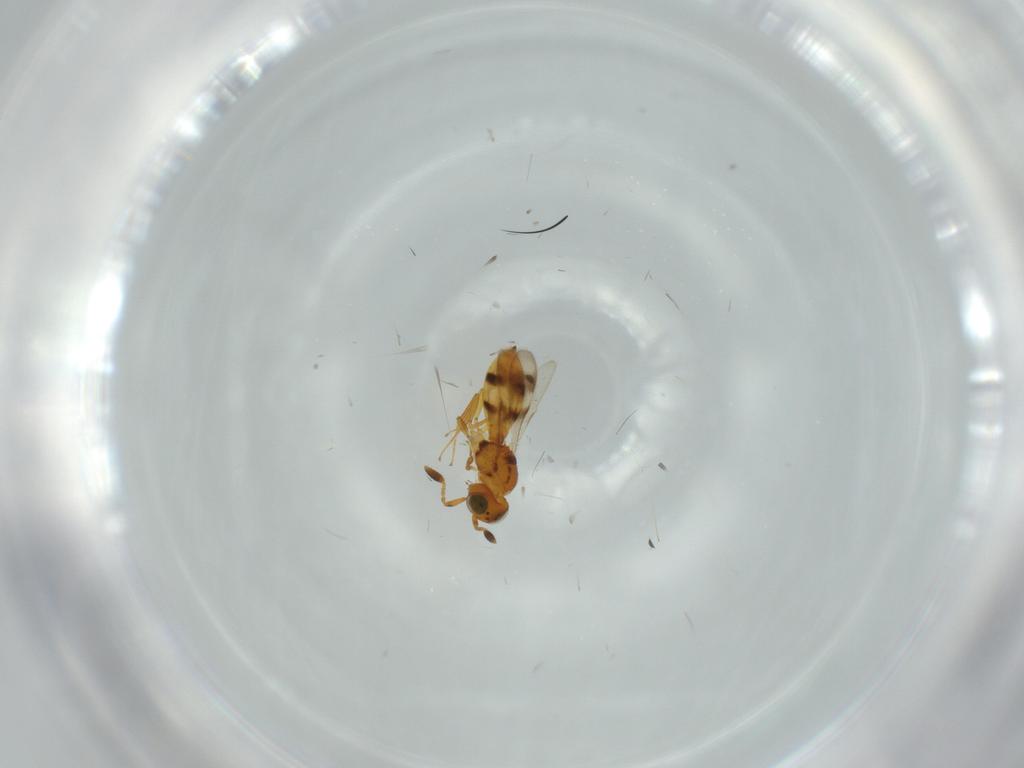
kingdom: Animalia
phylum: Arthropoda
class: Insecta
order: Hymenoptera
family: Scelionidae
